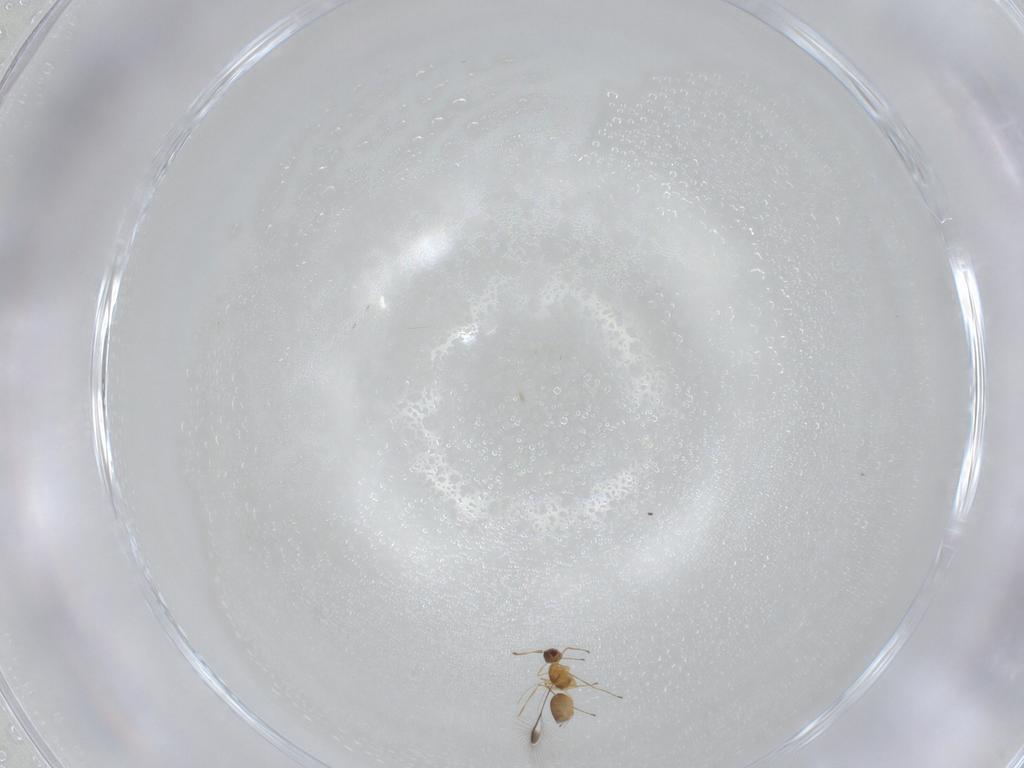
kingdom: Animalia
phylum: Arthropoda
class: Insecta
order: Hymenoptera
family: Mymaridae
